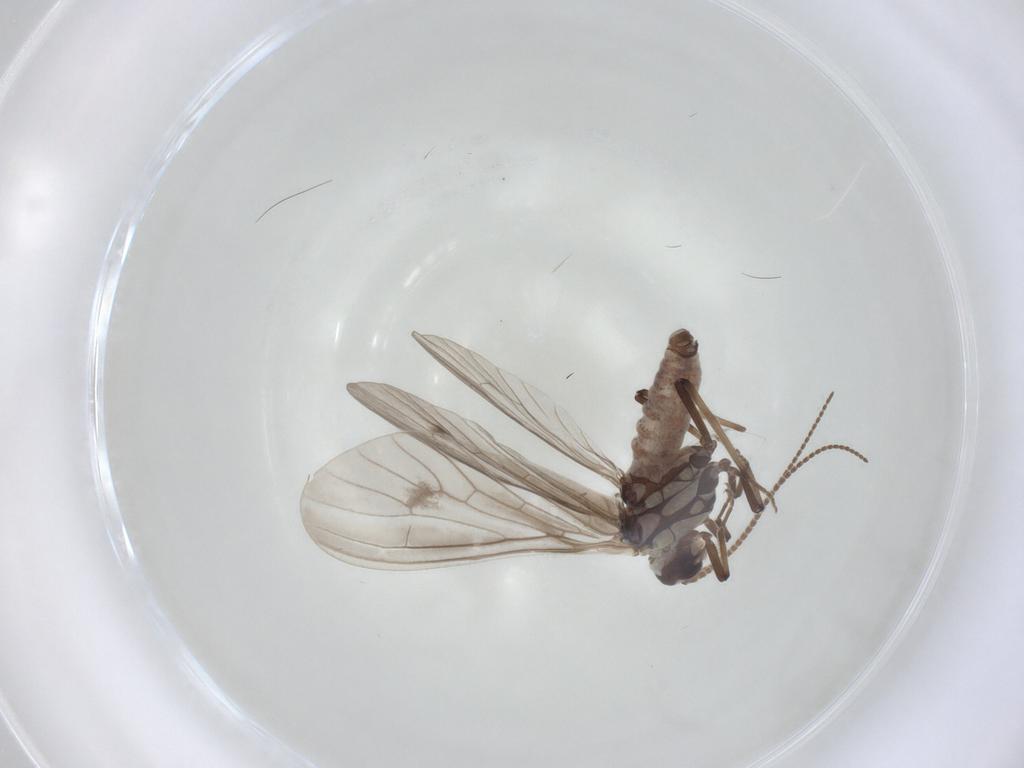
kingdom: Animalia
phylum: Arthropoda
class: Insecta
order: Neuroptera
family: Coniopterygidae
